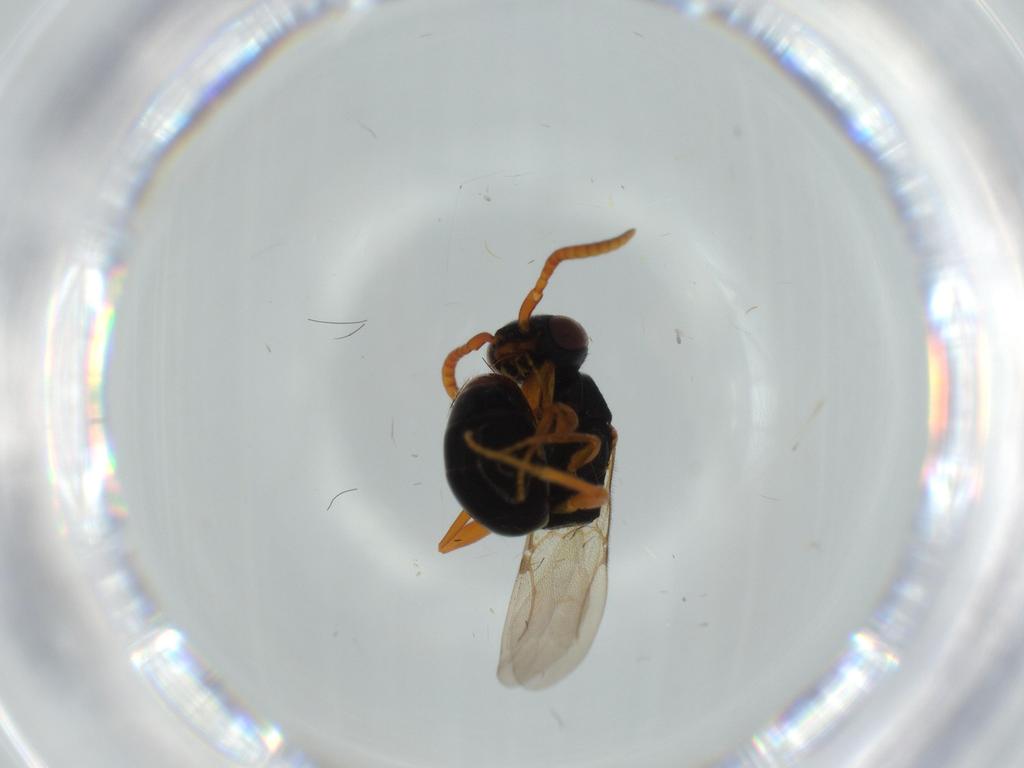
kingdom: Animalia
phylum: Arthropoda
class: Insecta
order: Hymenoptera
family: Bethylidae
